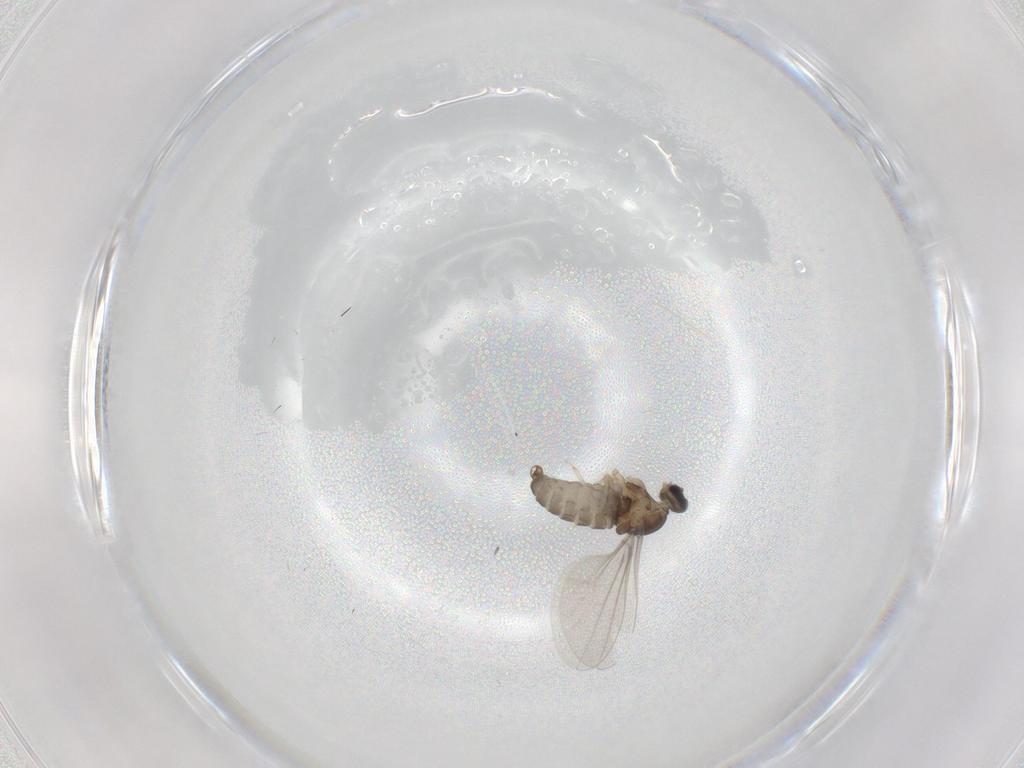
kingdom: Animalia
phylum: Arthropoda
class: Insecta
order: Diptera
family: Cecidomyiidae
